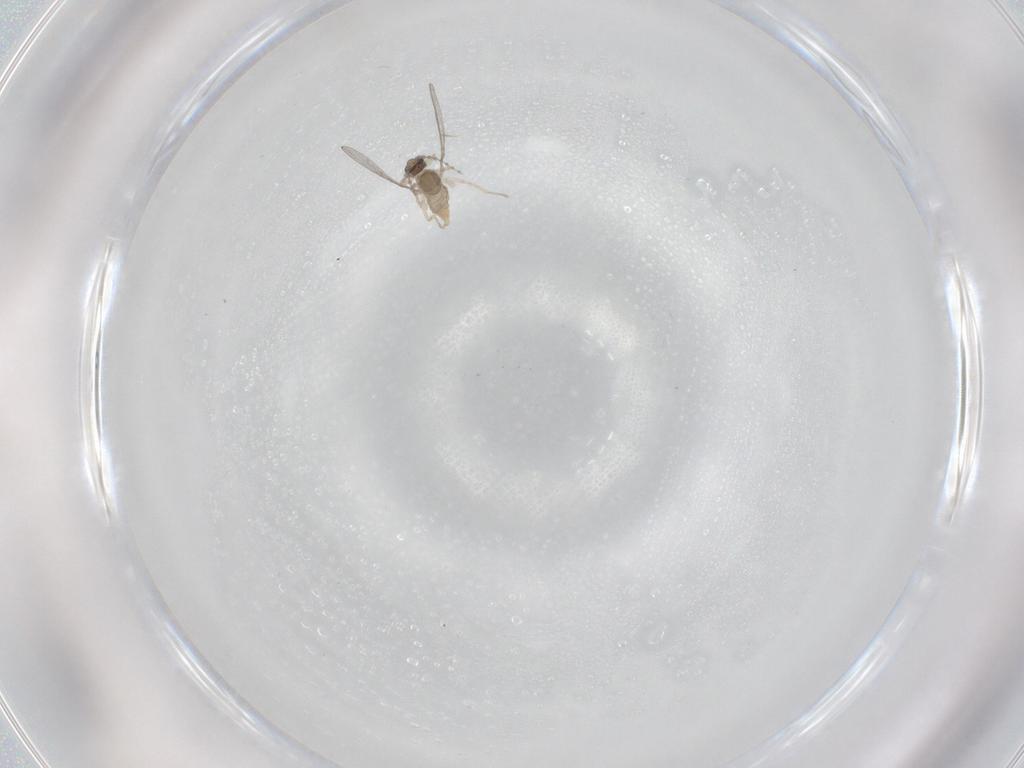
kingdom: Animalia
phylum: Arthropoda
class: Insecta
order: Diptera
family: Cecidomyiidae
